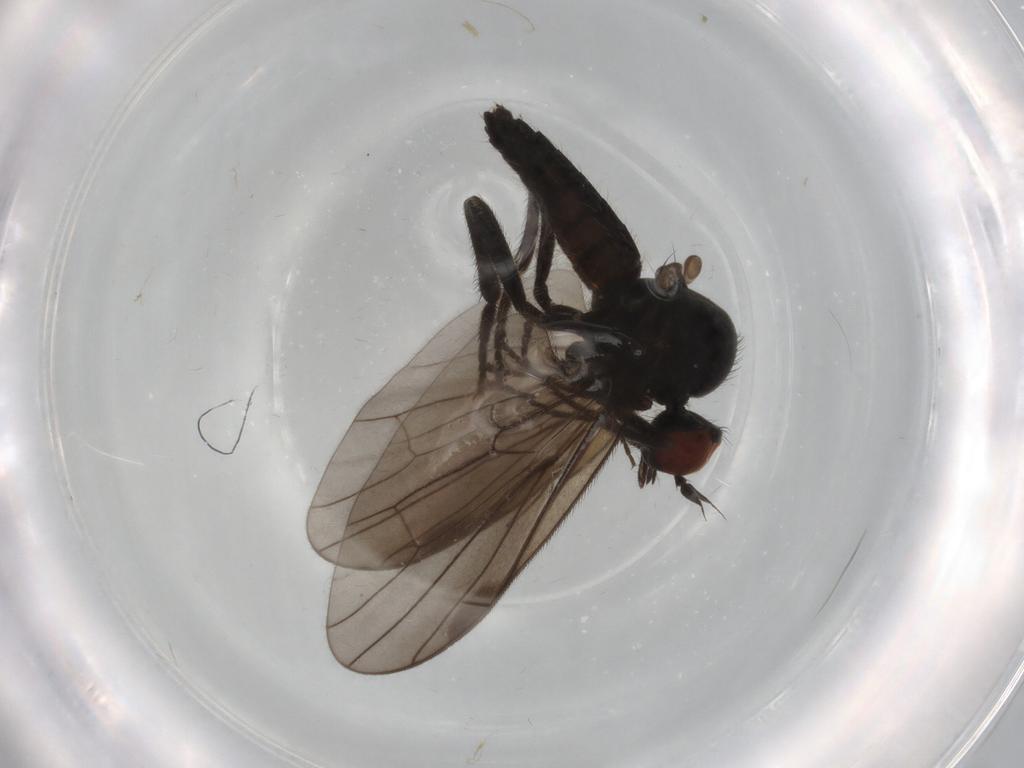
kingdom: Animalia
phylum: Arthropoda
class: Insecta
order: Diptera
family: Hybotidae
